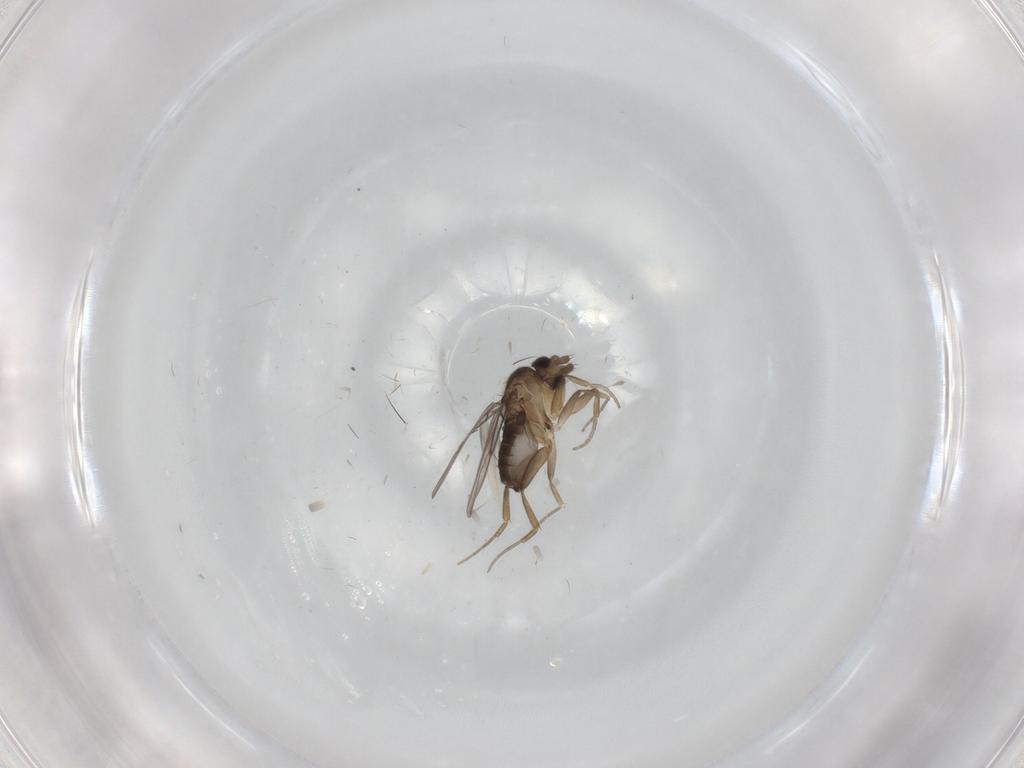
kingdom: Animalia
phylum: Arthropoda
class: Insecta
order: Diptera
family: Phoridae
